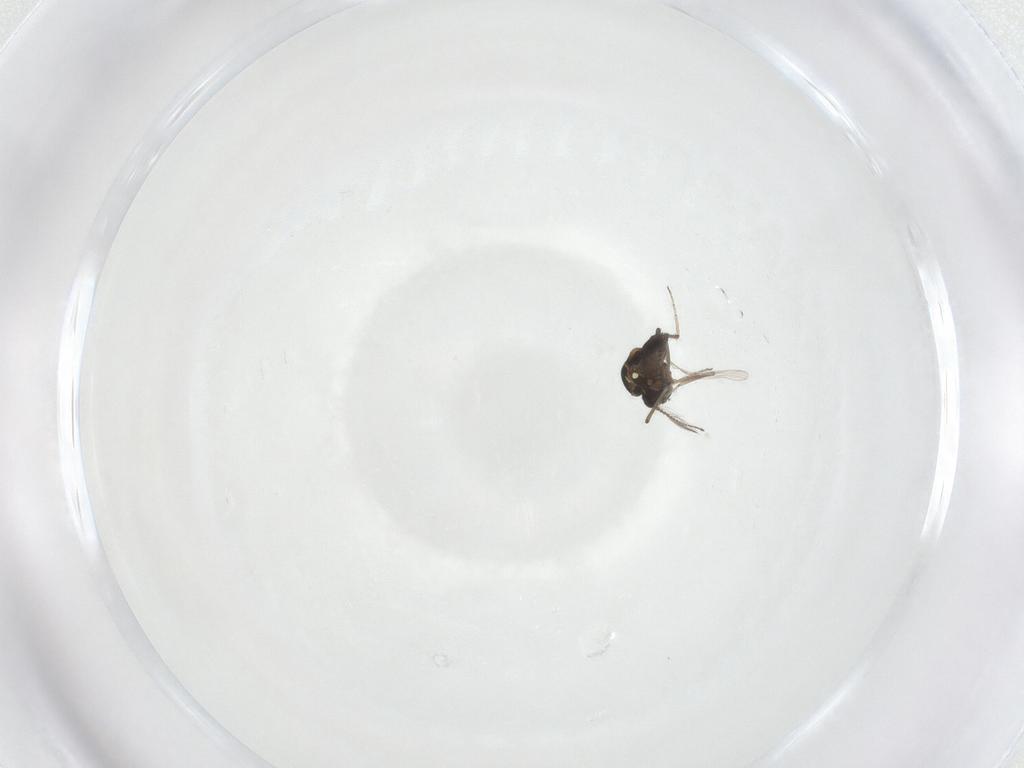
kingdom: Animalia
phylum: Arthropoda
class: Insecta
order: Diptera
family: Ceratopogonidae
